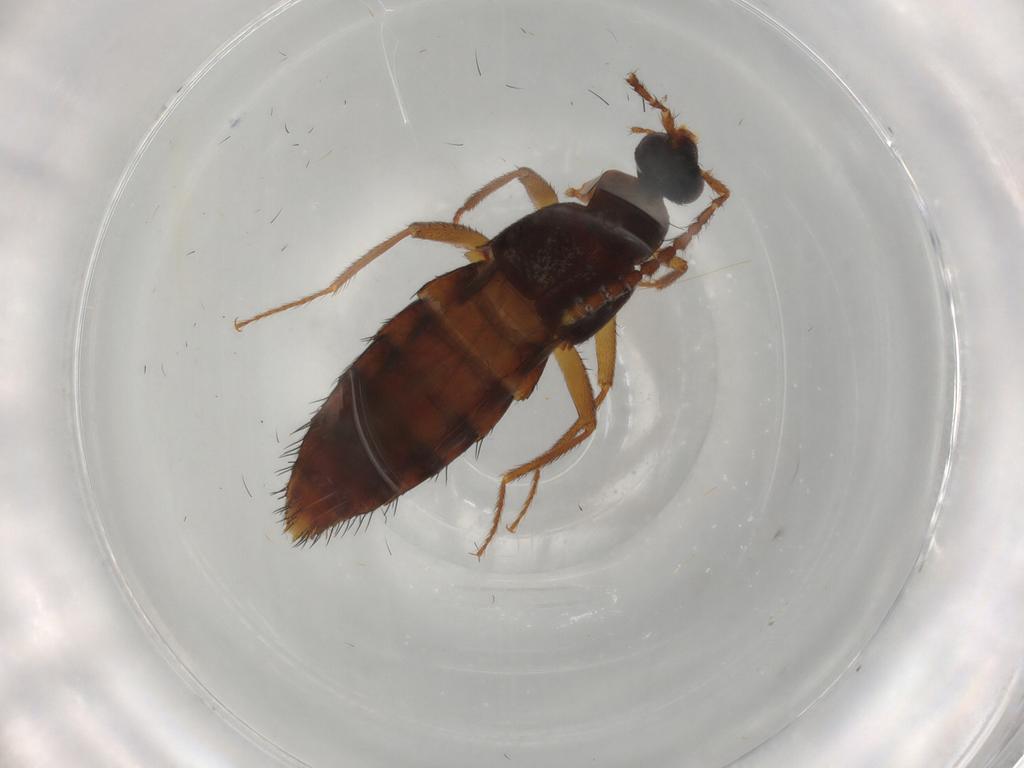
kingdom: Animalia
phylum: Arthropoda
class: Insecta
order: Coleoptera
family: Staphylinidae
